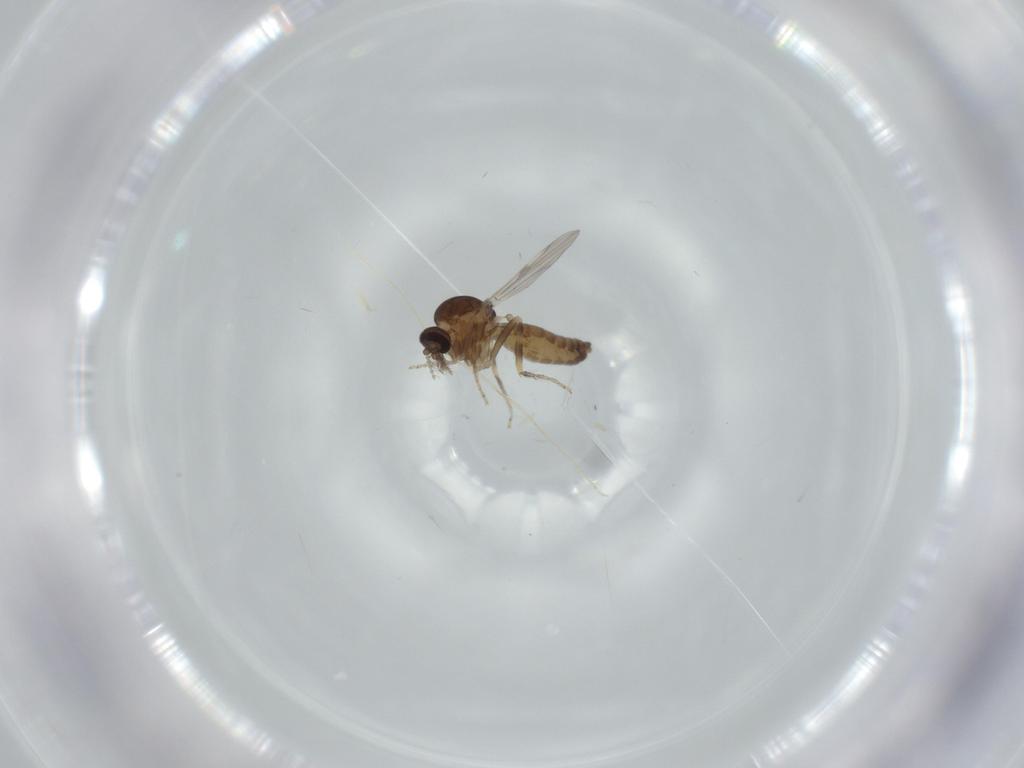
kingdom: Animalia
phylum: Arthropoda
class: Insecta
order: Diptera
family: Ceratopogonidae
